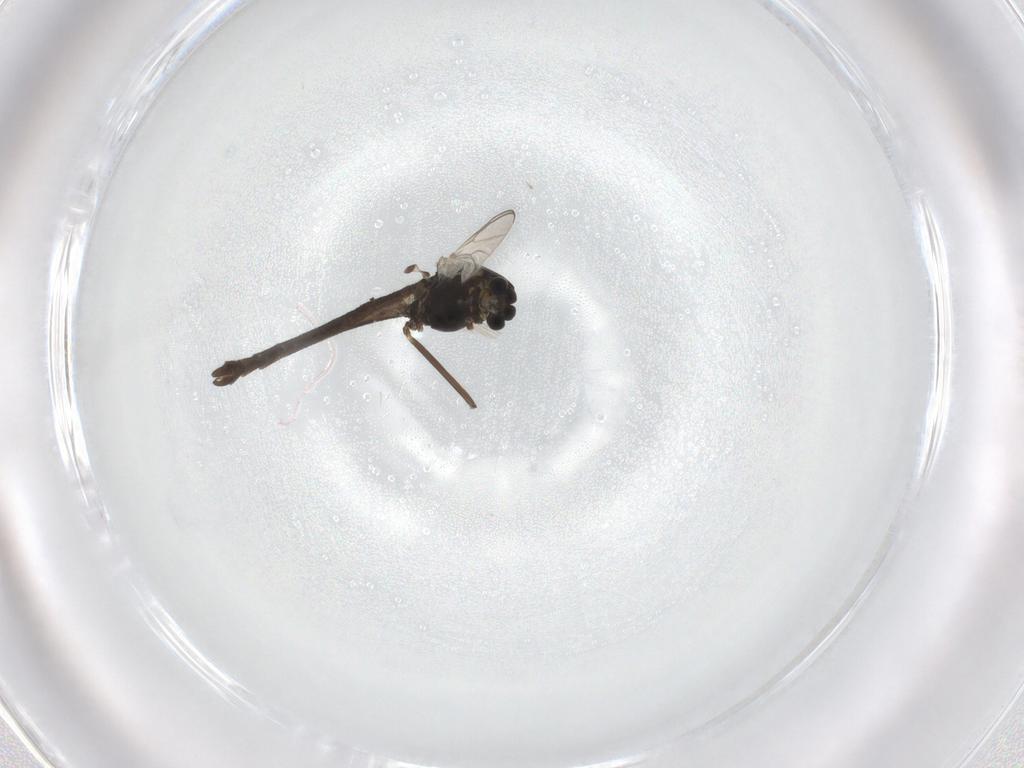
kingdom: Animalia
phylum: Arthropoda
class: Insecta
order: Diptera
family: Chironomidae
